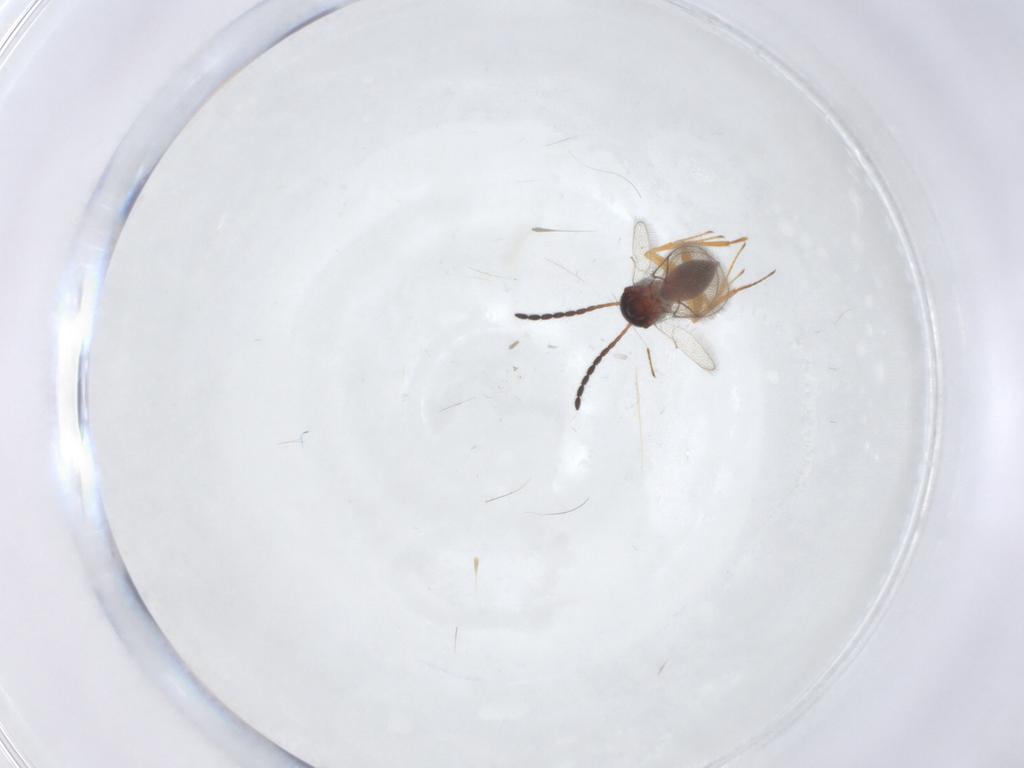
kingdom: Animalia
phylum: Arthropoda
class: Insecta
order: Hymenoptera
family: Figitidae
